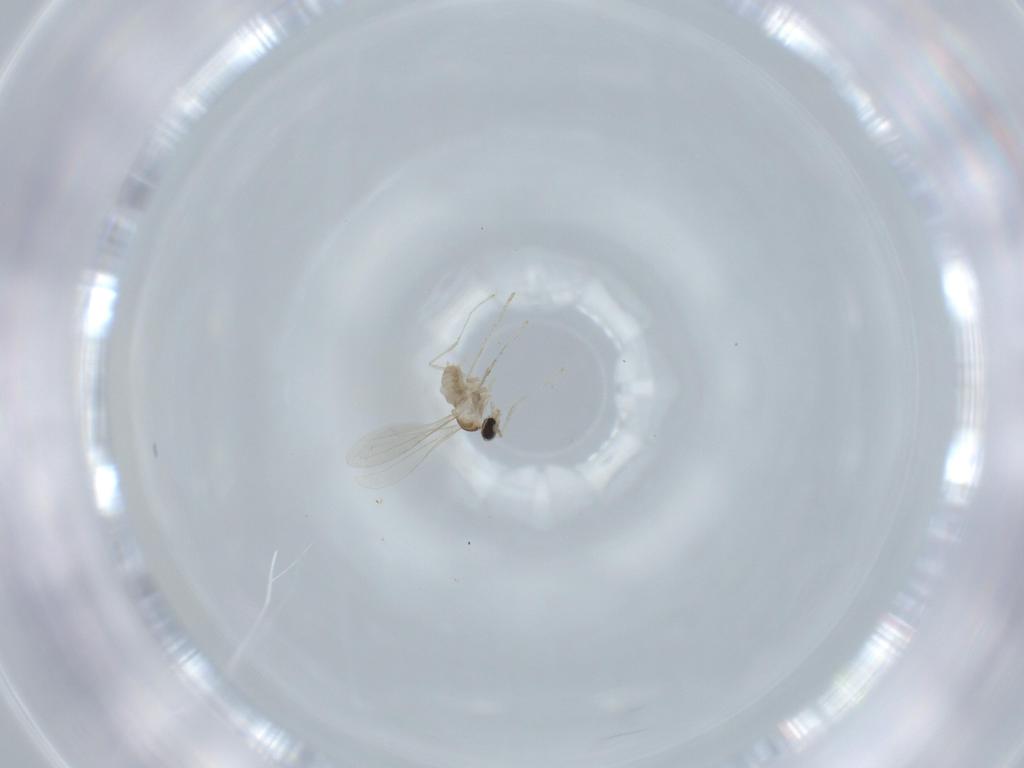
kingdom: Animalia
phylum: Arthropoda
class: Insecta
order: Diptera
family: Cecidomyiidae
